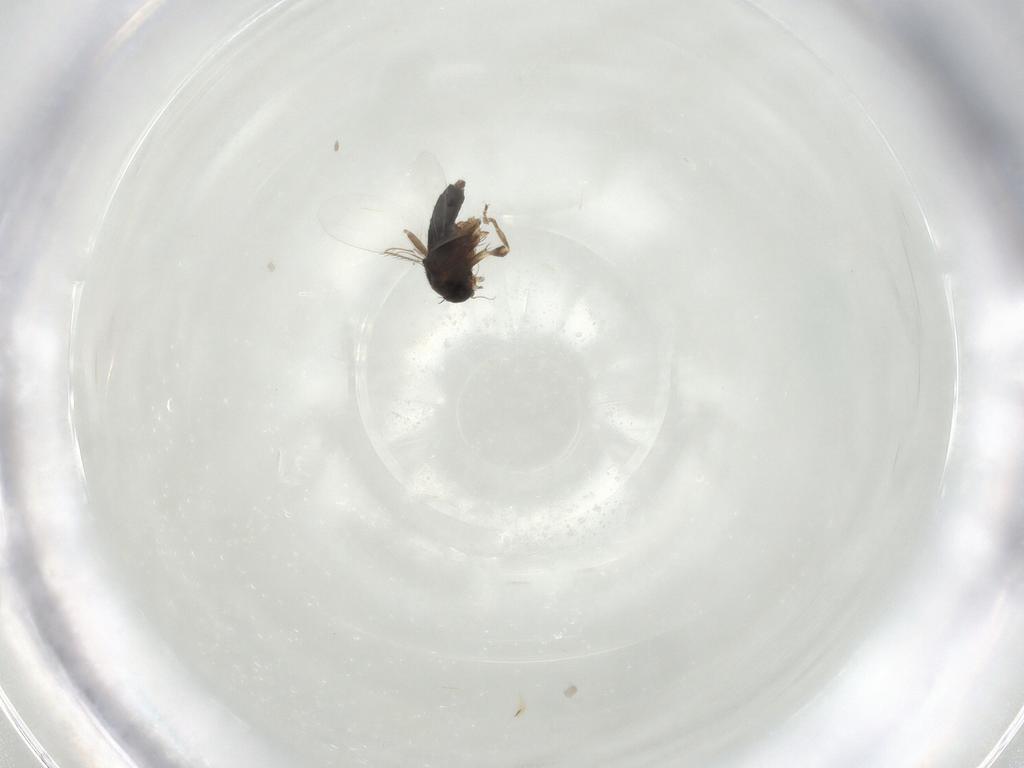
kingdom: Animalia
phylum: Arthropoda
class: Insecta
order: Diptera
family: Phoridae
